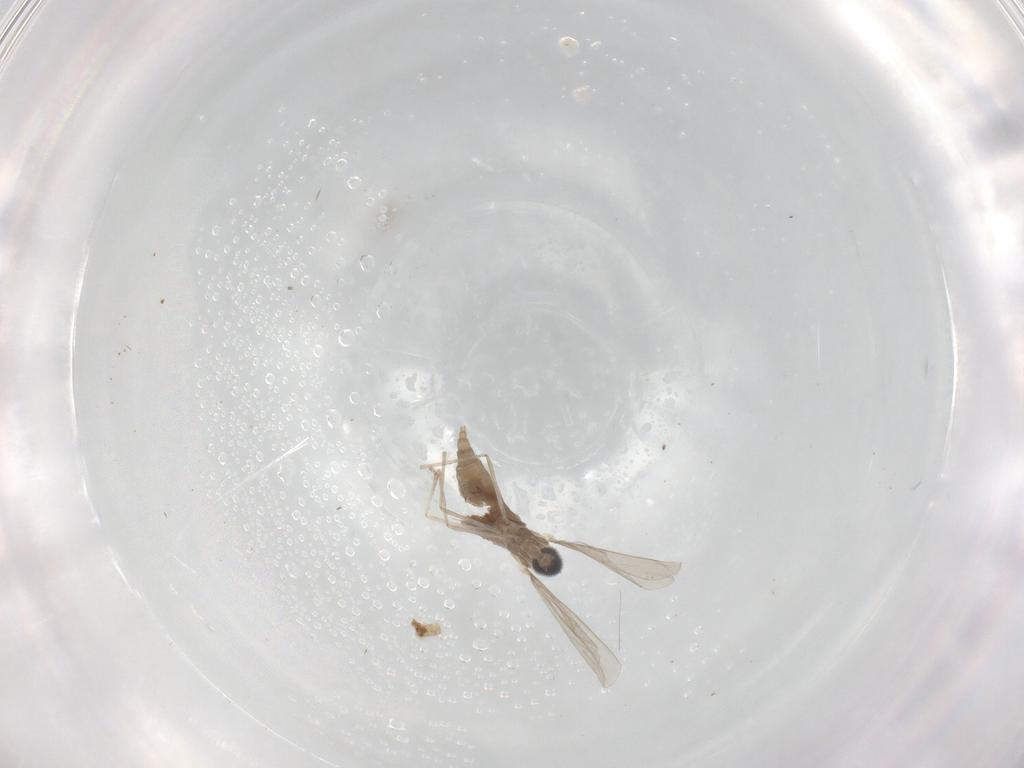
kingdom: Animalia
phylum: Arthropoda
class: Insecta
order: Diptera
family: Cecidomyiidae
